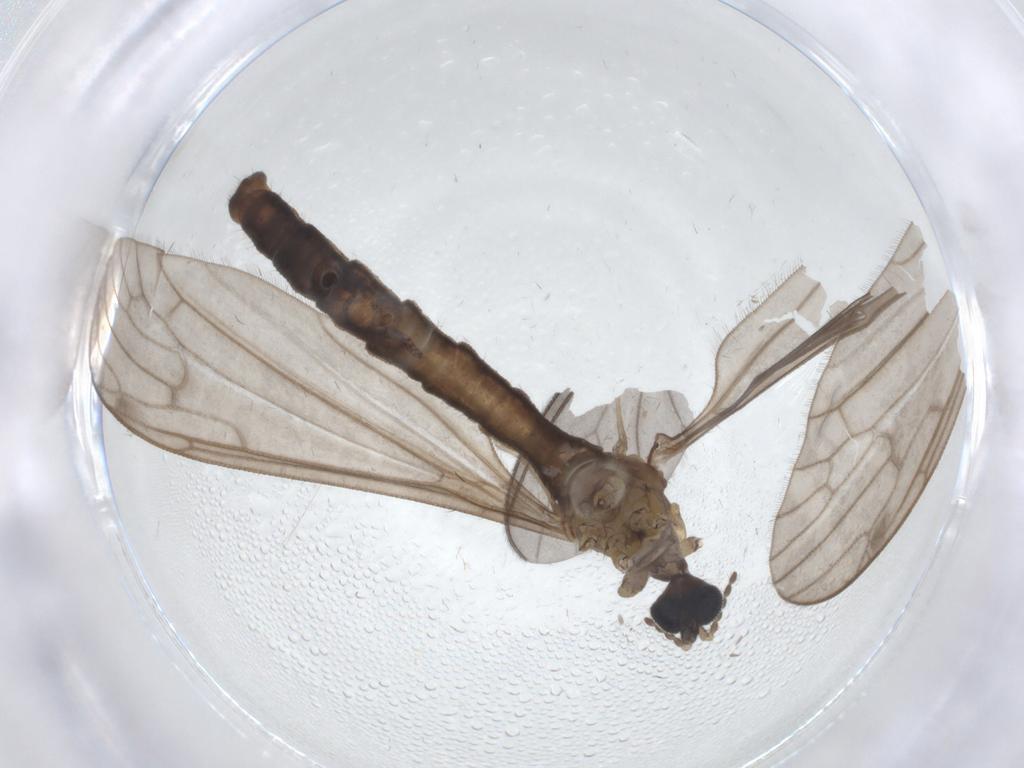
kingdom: Animalia
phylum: Arthropoda
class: Insecta
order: Diptera
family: Sciaridae
